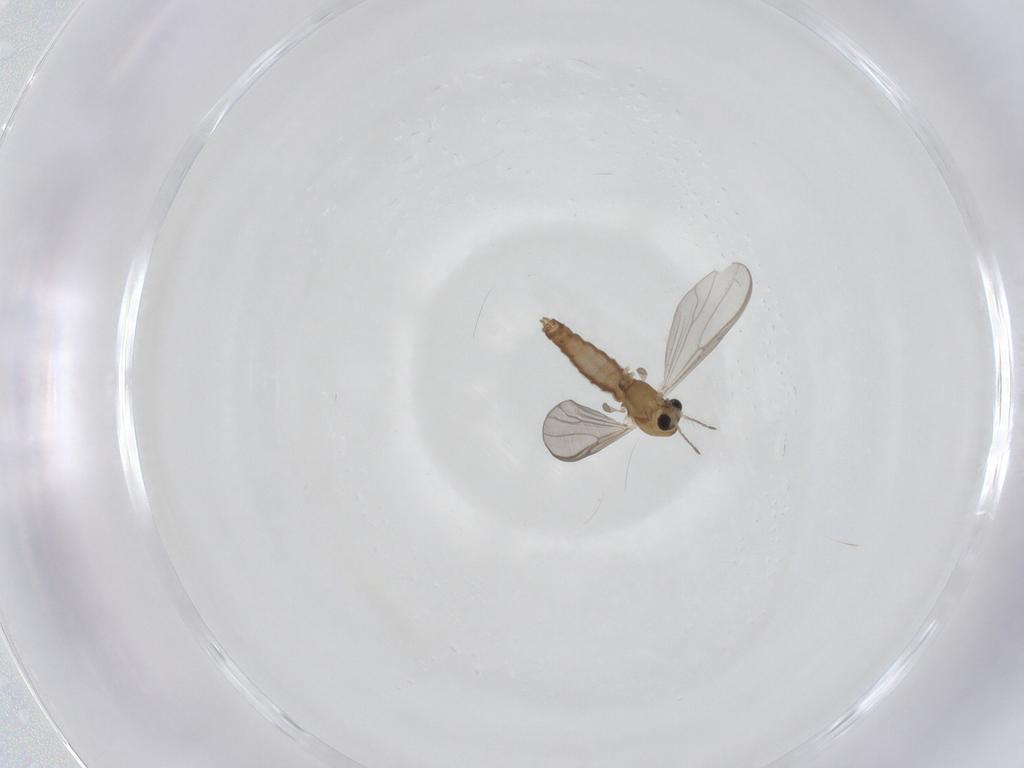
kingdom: Animalia
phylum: Arthropoda
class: Insecta
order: Diptera
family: Chironomidae
